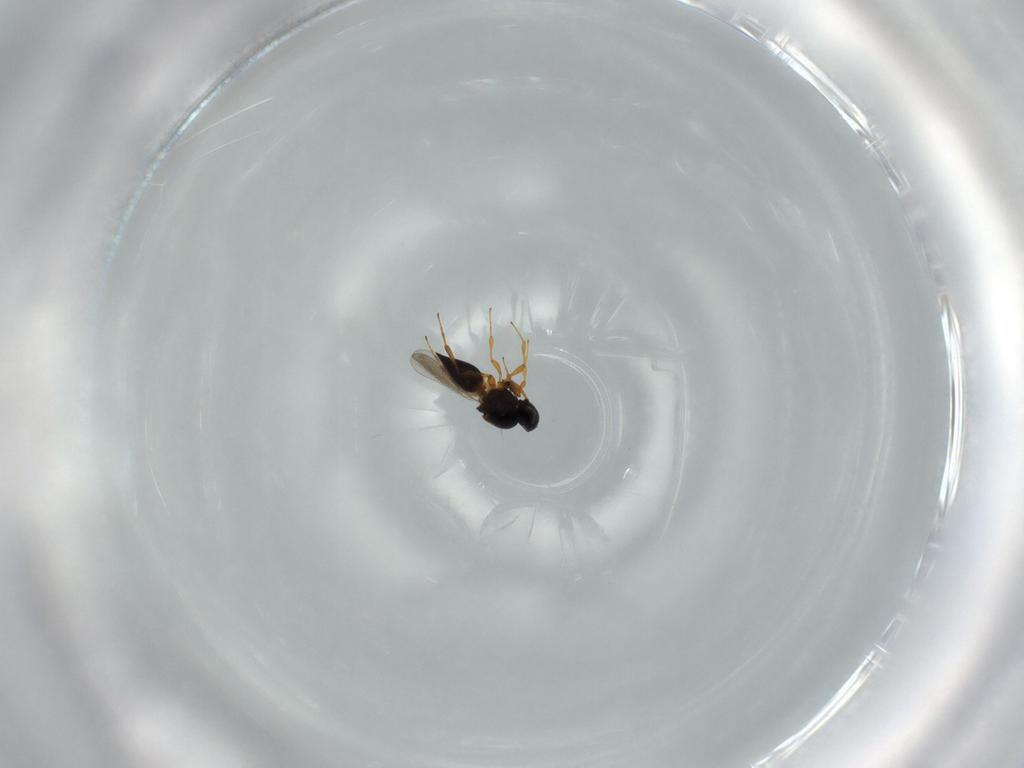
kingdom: Animalia
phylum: Arthropoda
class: Insecta
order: Hymenoptera
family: Platygastridae
